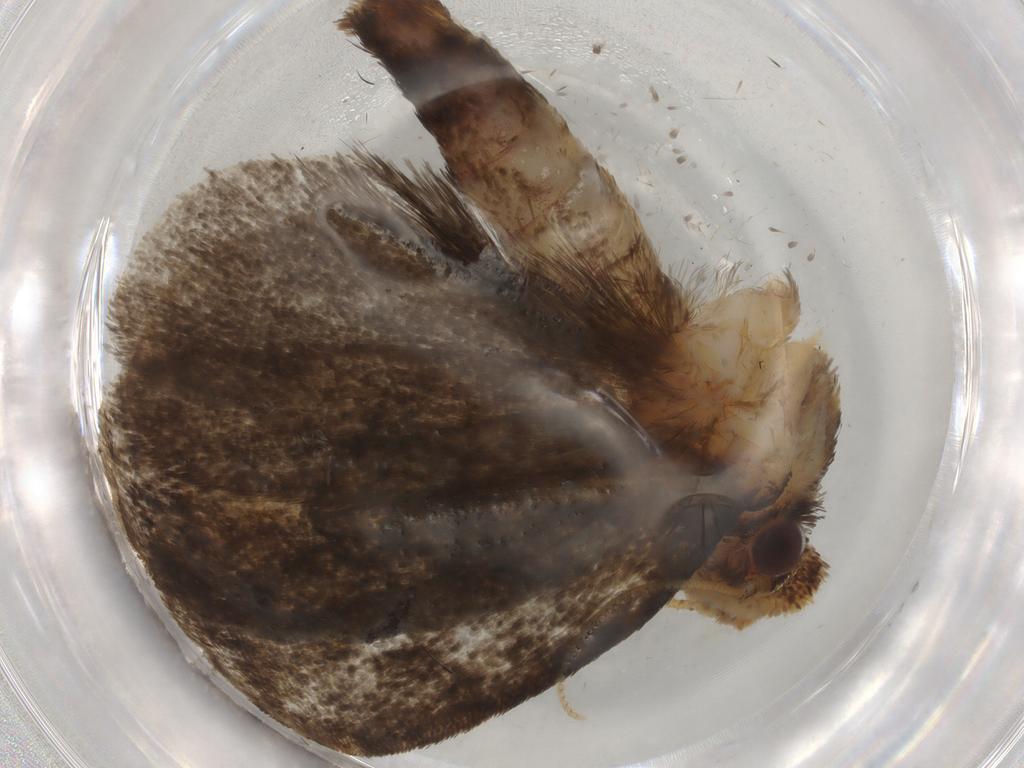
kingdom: Animalia
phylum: Arthropoda
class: Insecta
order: Lepidoptera
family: Tineidae
